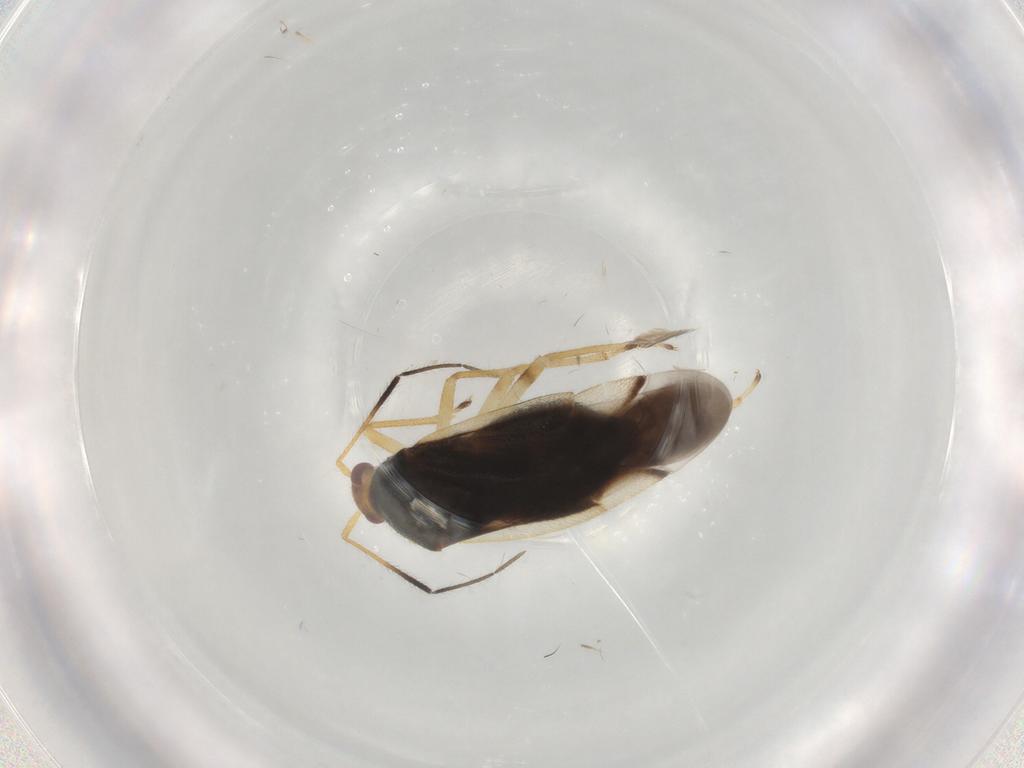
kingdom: Animalia
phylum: Arthropoda
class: Insecta
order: Hemiptera
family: Miridae
